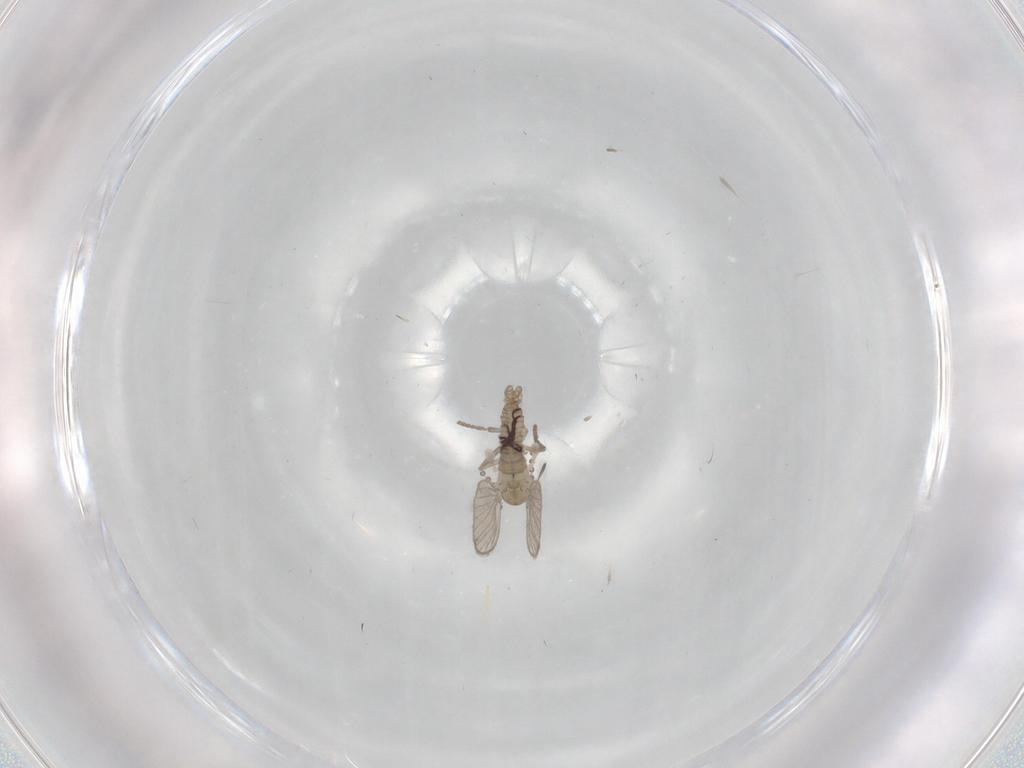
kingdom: Animalia
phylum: Arthropoda
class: Insecta
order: Diptera
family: Psychodidae
